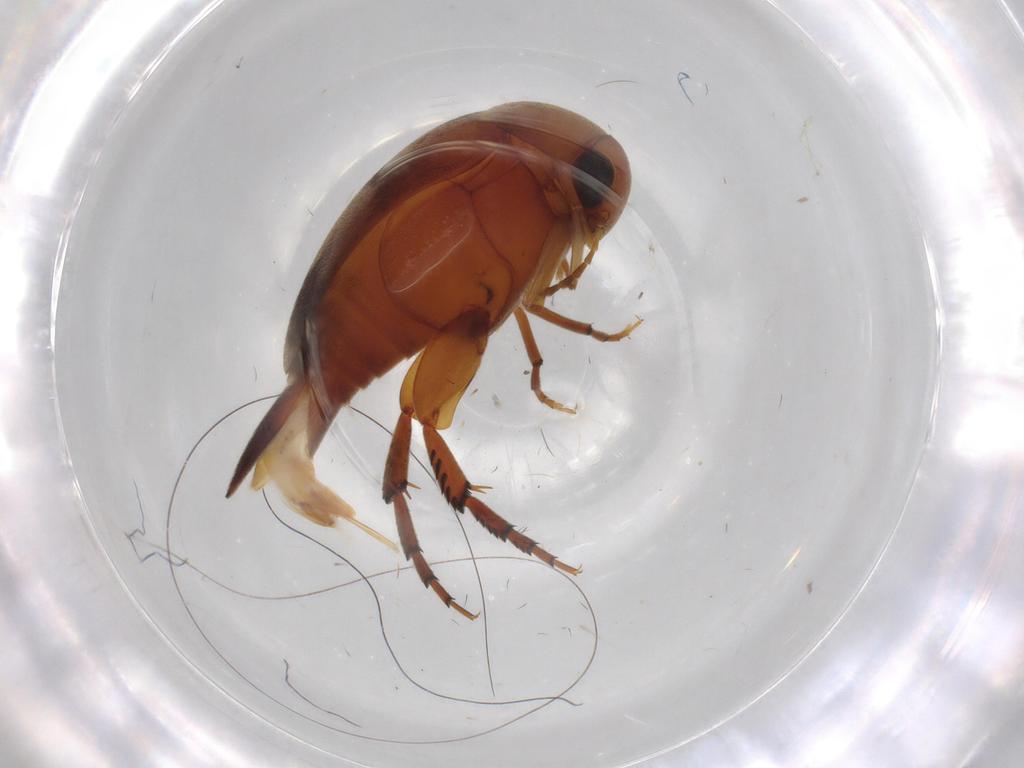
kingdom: Animalia
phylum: Arthropoda
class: Insecta
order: Coleoptera
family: Mordellidae
